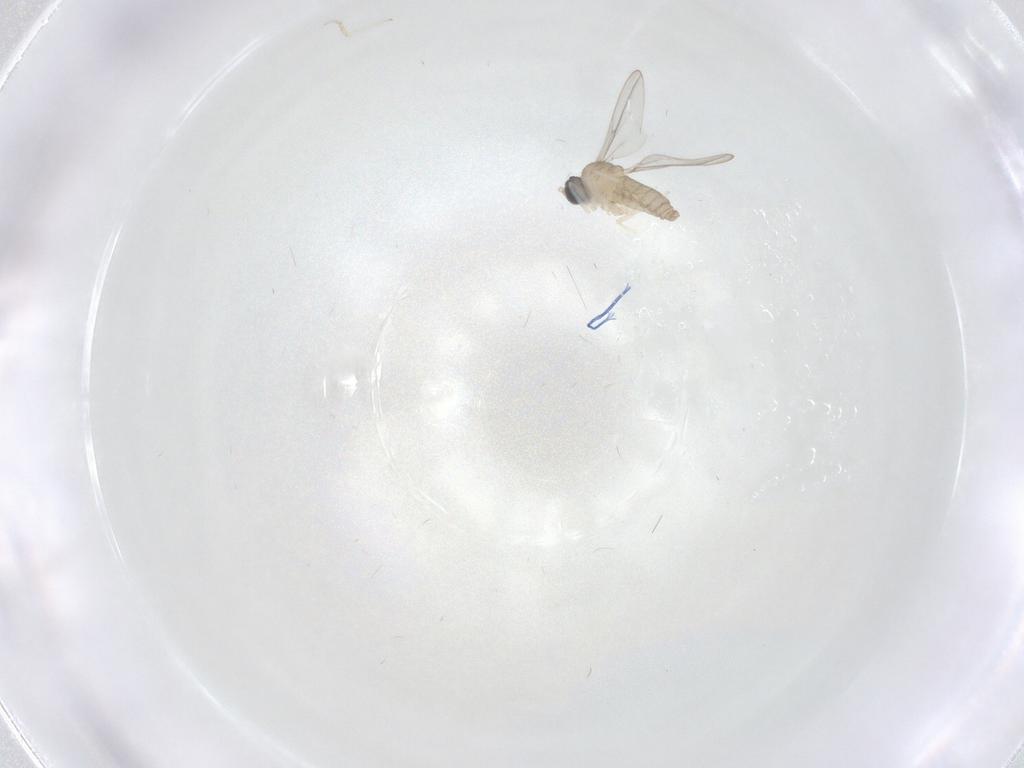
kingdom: Animalia
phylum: Arthropoda
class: Insecta
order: Diptera
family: Cecidomyiidae
